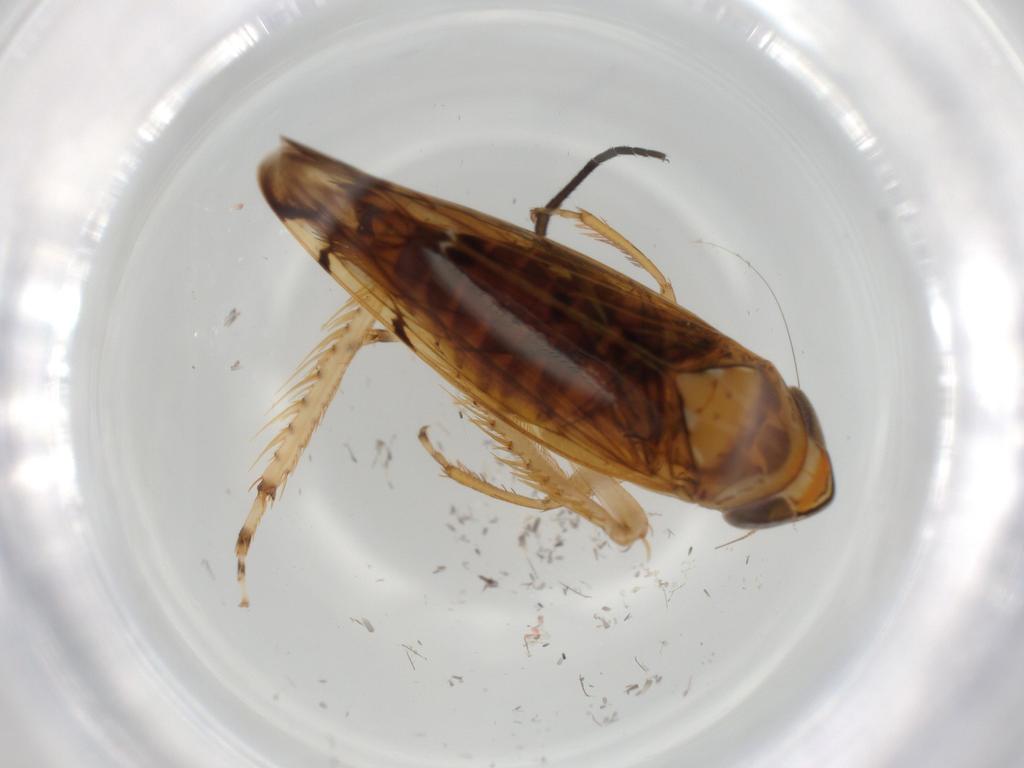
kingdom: Animalia
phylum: Arthropoda
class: Insecta
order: Hemiptera
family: Cicadellidae
